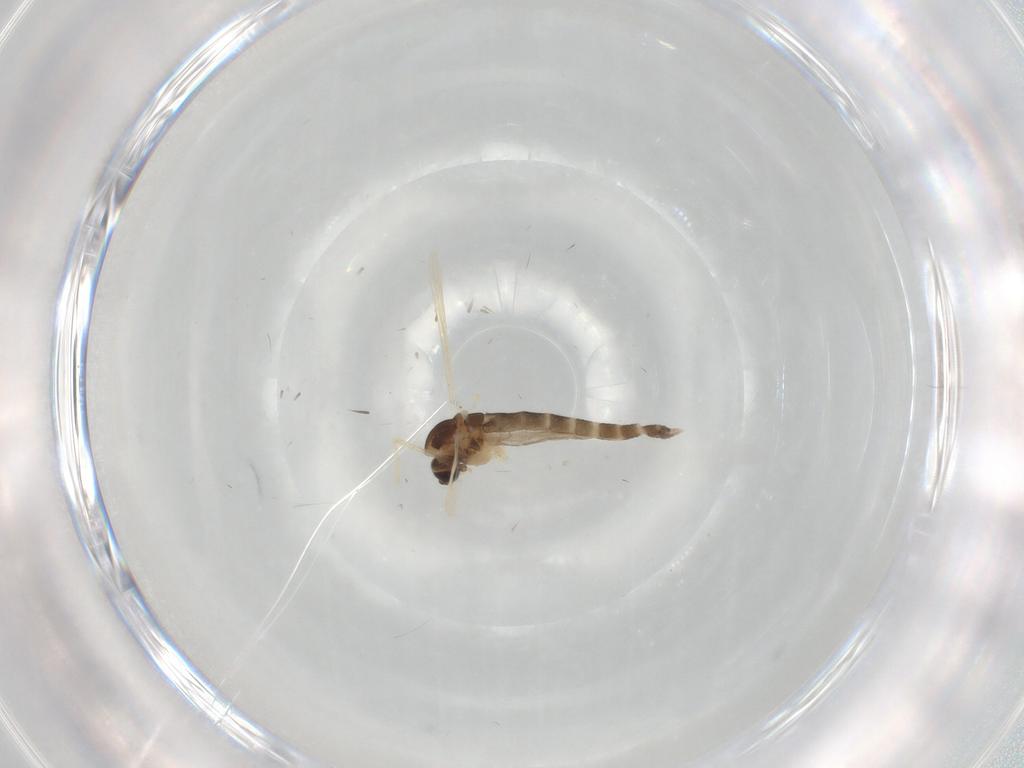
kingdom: Animalia
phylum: Arthropoda
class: Insecta
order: Diptera
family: Chironomidae
